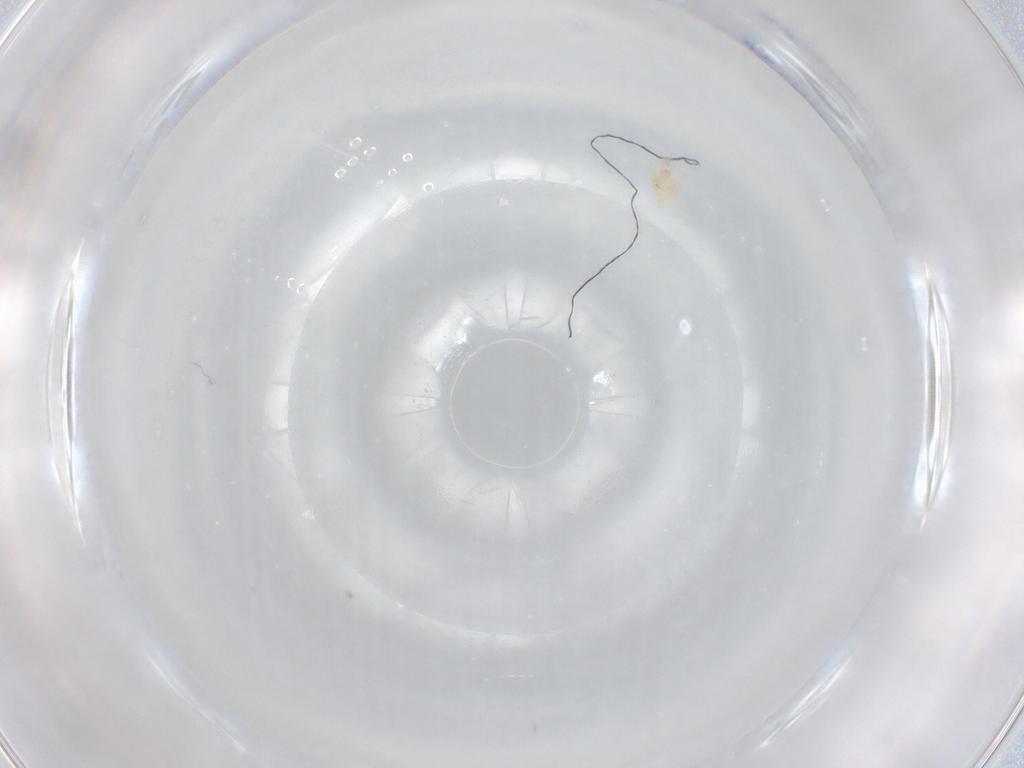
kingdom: Animalia
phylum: Arthropoda
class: Arachnida
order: Trombidiformes
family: Cunaxidae
